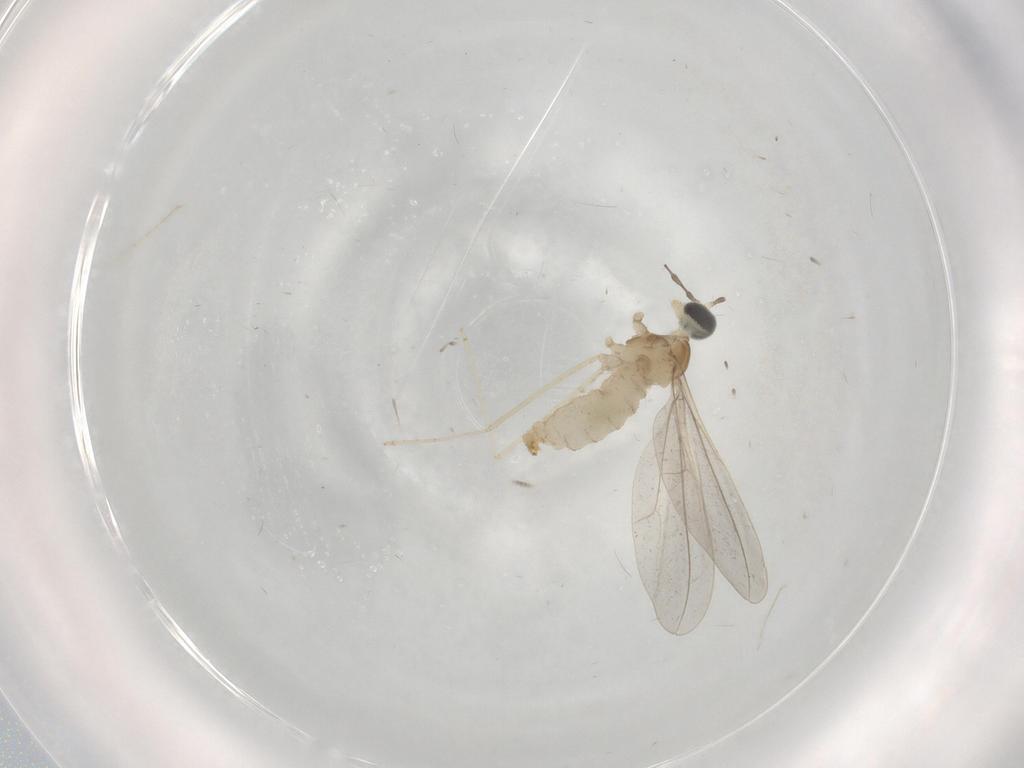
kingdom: Animalia
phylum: Arthropoda
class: Insecta
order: Diptera
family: Cecidomyiidae
